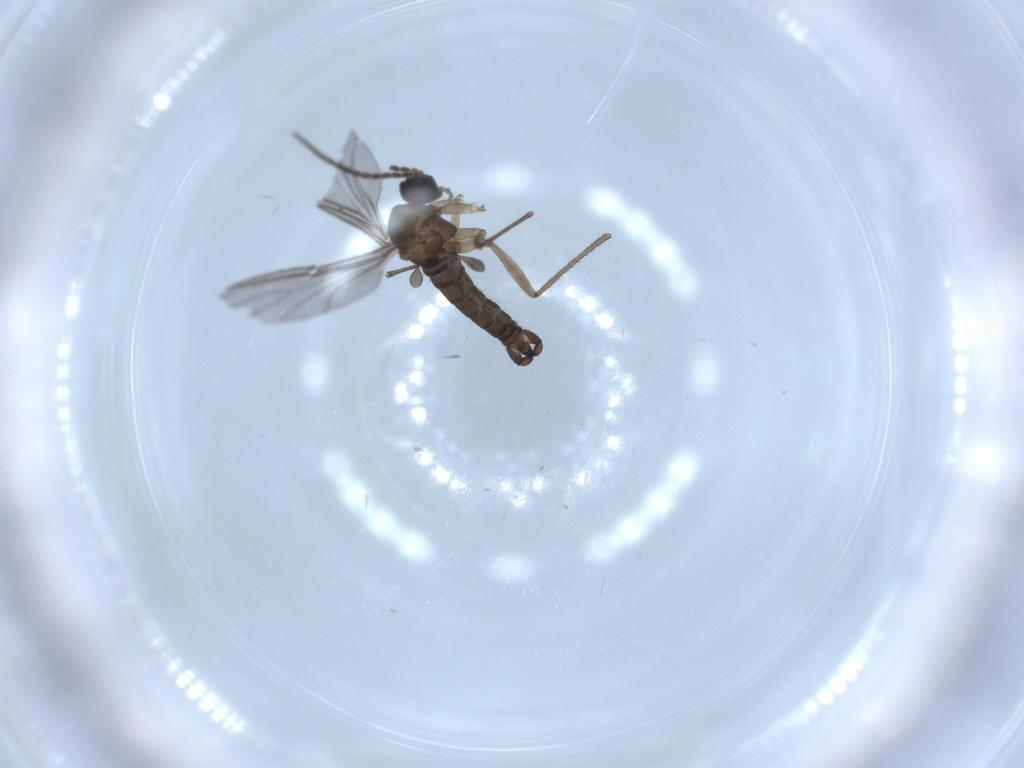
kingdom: Animalia
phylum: Arthropoda
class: Insecta
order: Diptera
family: Sciaridae
